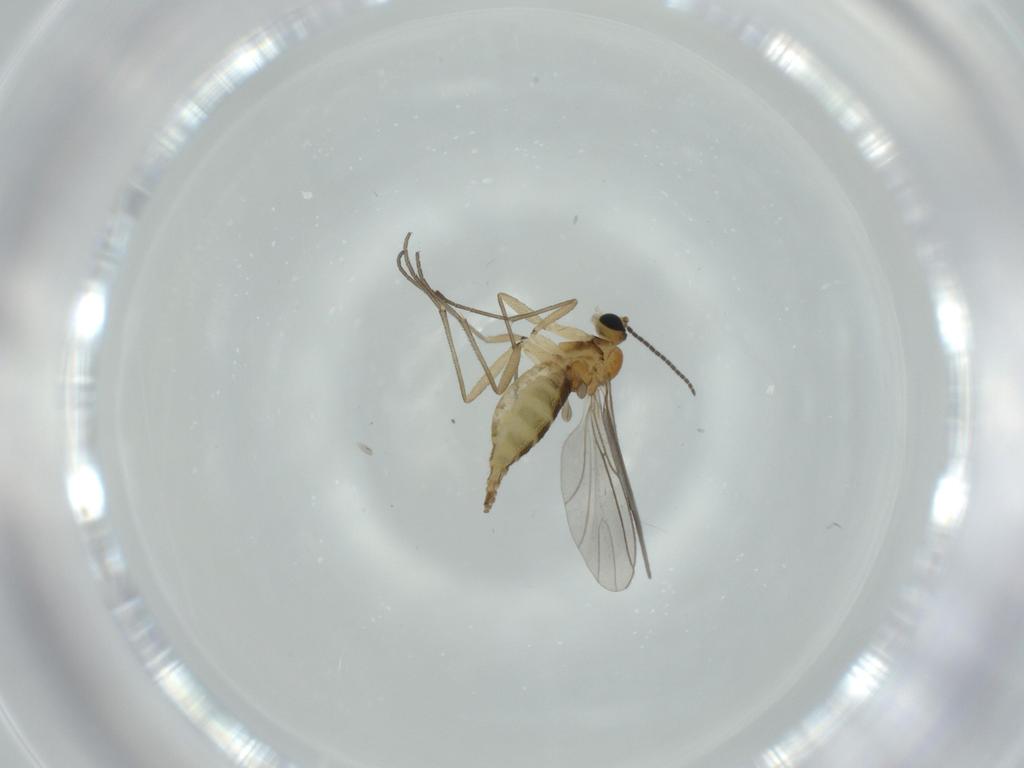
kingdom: Animalia
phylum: Arthropoda
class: Insecta
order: Diptera
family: Sciaridae
